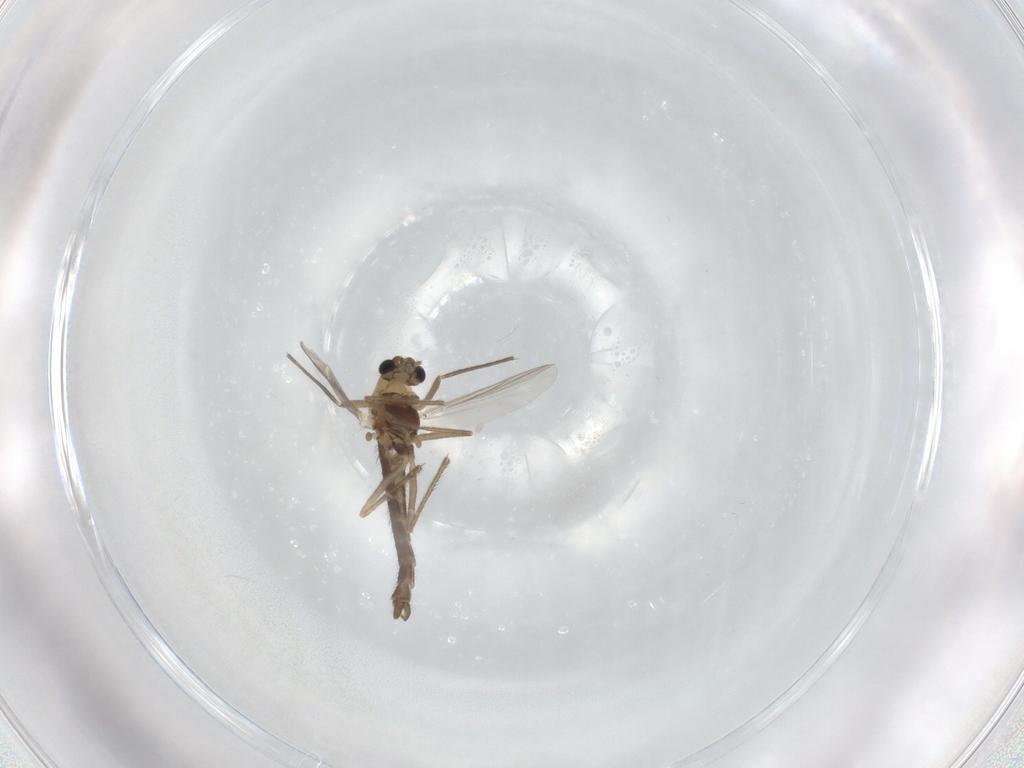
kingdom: Animalia
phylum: Arthropoda
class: Insecta
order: Diptera
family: Chironomidae
